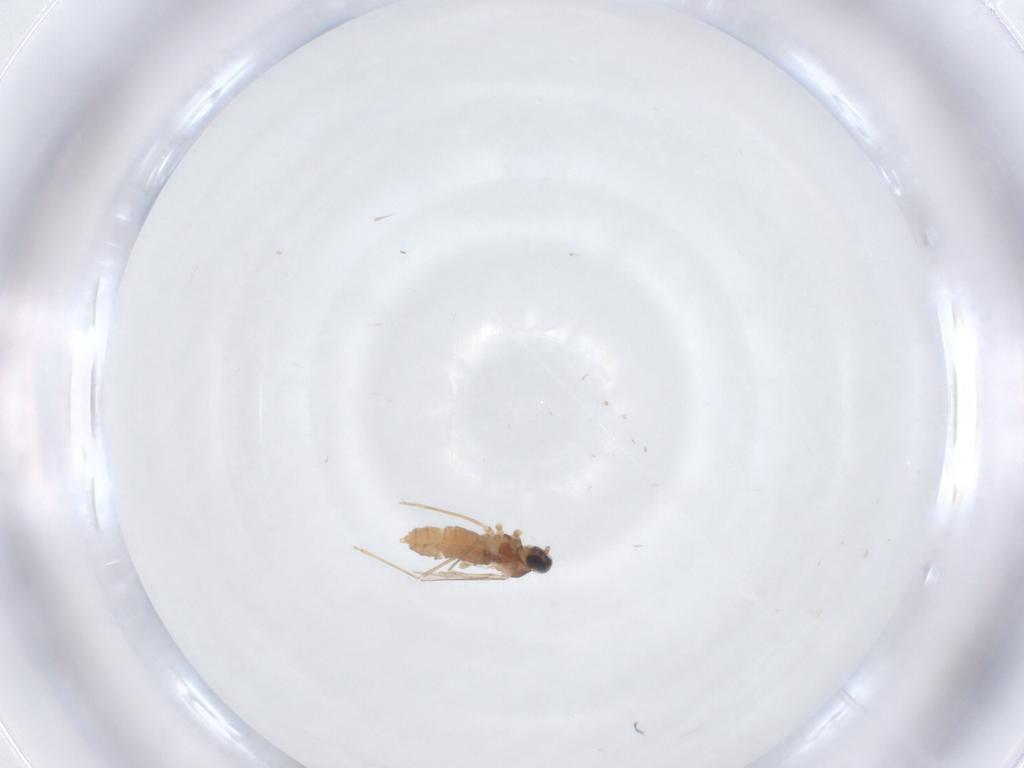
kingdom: Animalia
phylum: Arthropoda
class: Insecta
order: Diptera
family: Cecidomyiidae
